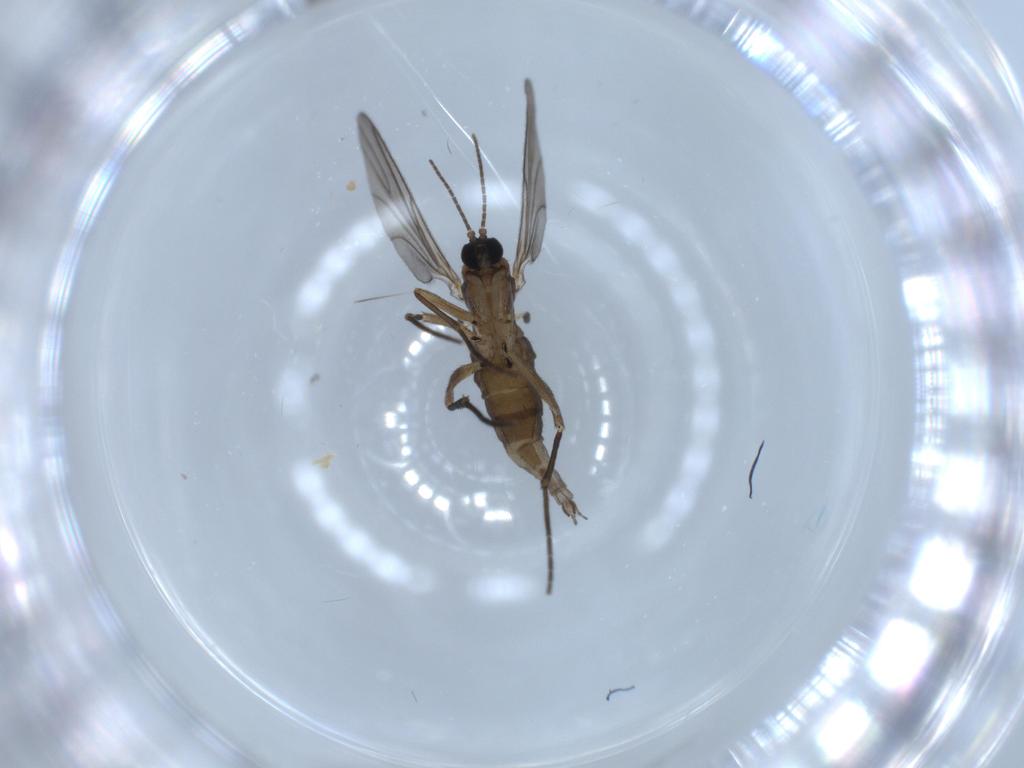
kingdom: Animalia
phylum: Arthropoda
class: Insecta
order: Diptera
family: Sciaridae
